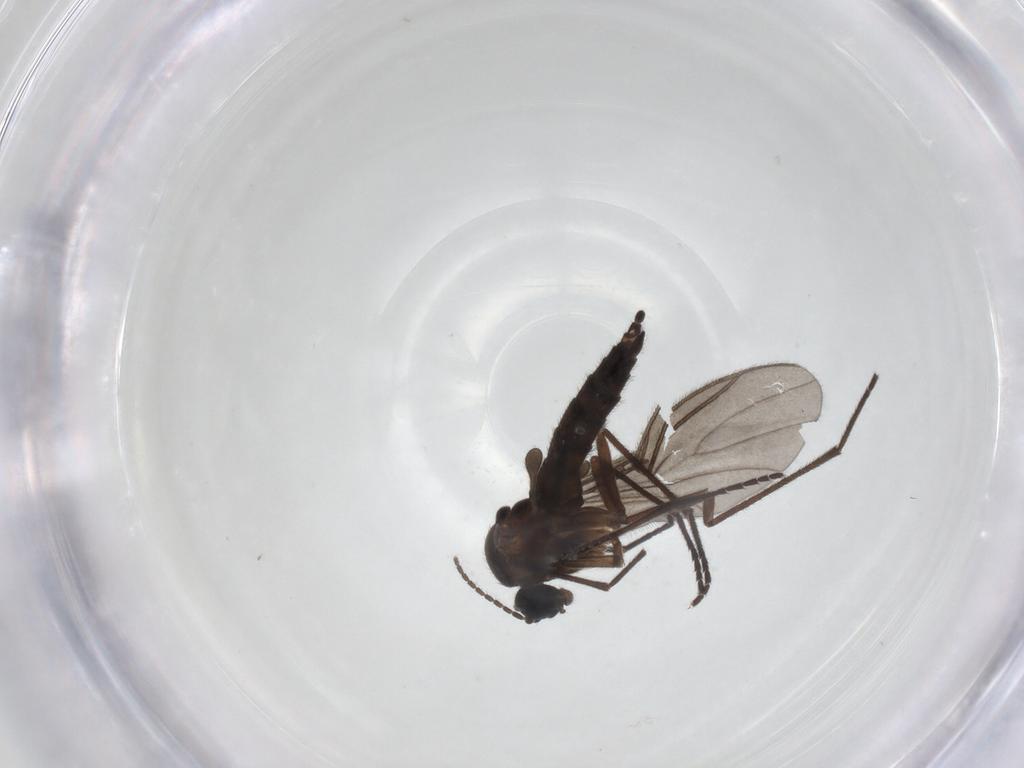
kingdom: Animalia
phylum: Arthropoda
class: Insecta
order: Diptera
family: Sciaridae
